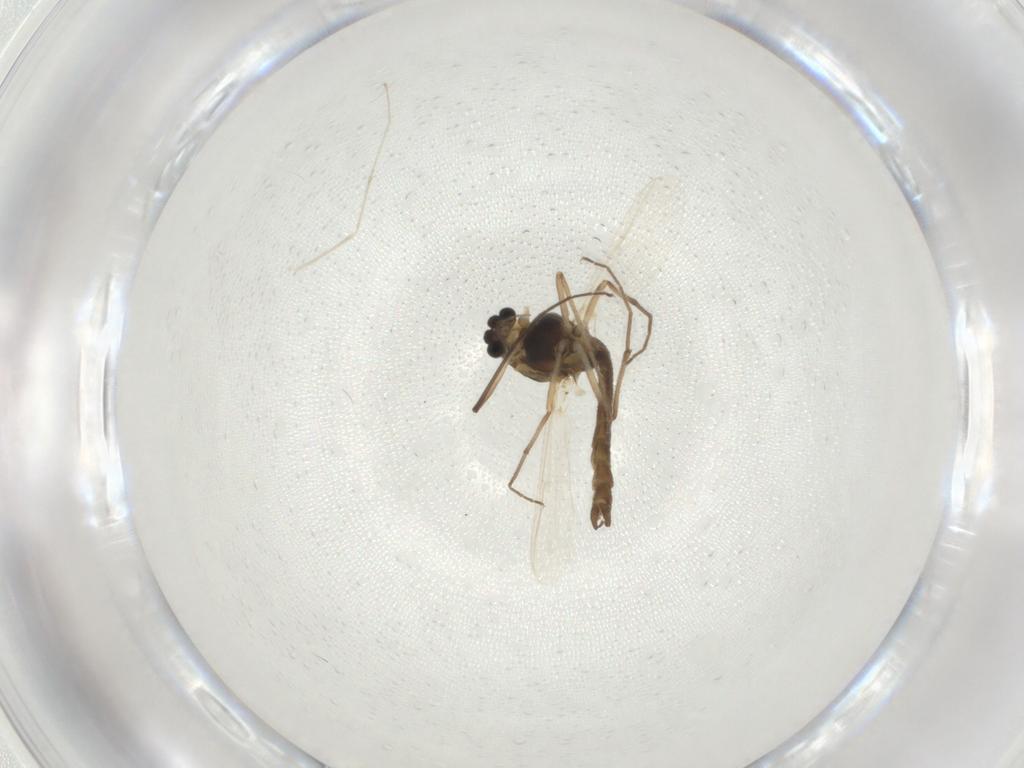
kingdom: Animalia
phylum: Arthropoda
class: Insecta
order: Diptera
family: Chironomidae
